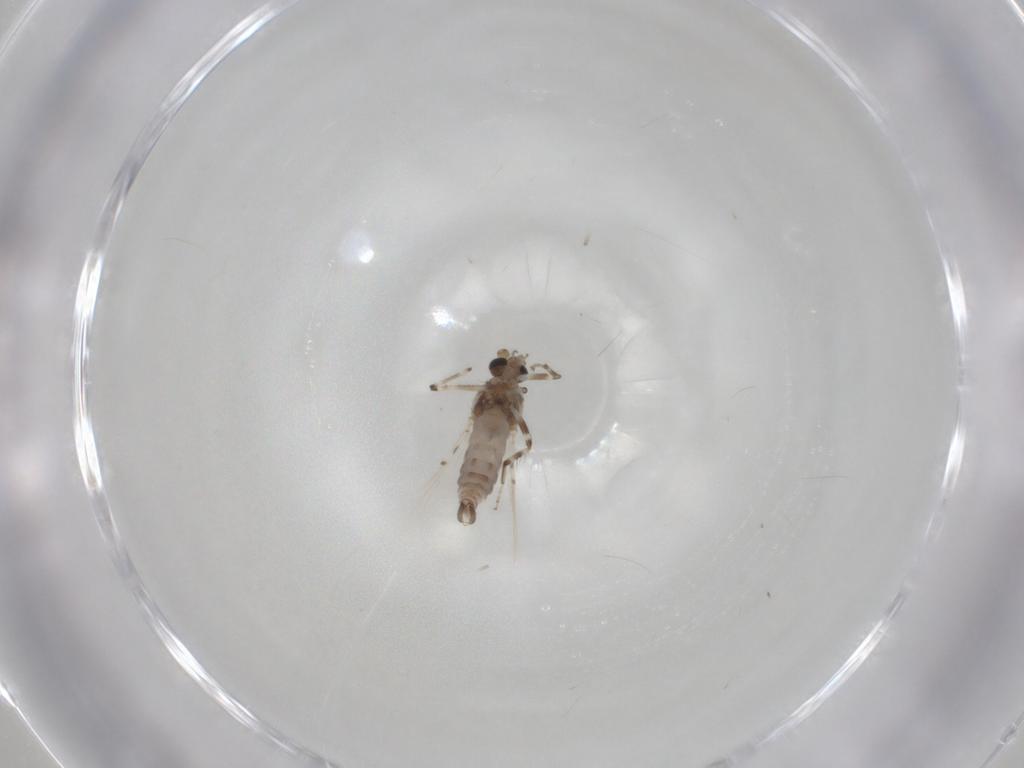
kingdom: Animalia
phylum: Arthropoda
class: Insecta
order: Diptera
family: Ceratopogonidae
